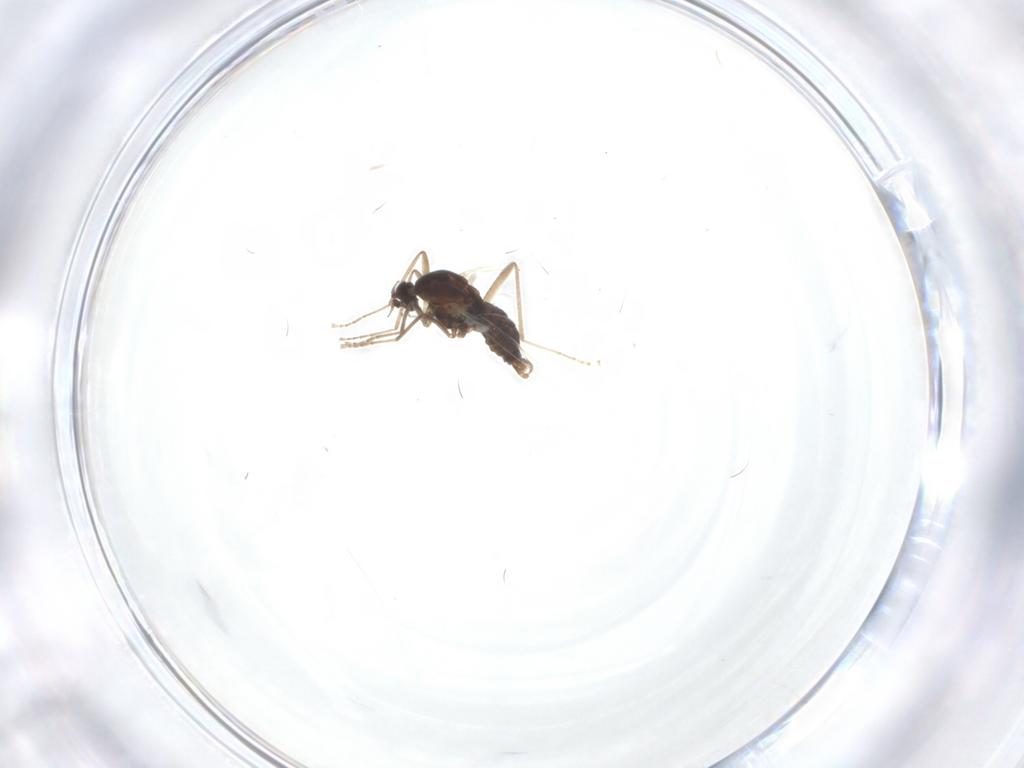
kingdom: Animalia
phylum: Arthropoda
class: Insecta
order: Diptera
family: Cecidomyiidae
